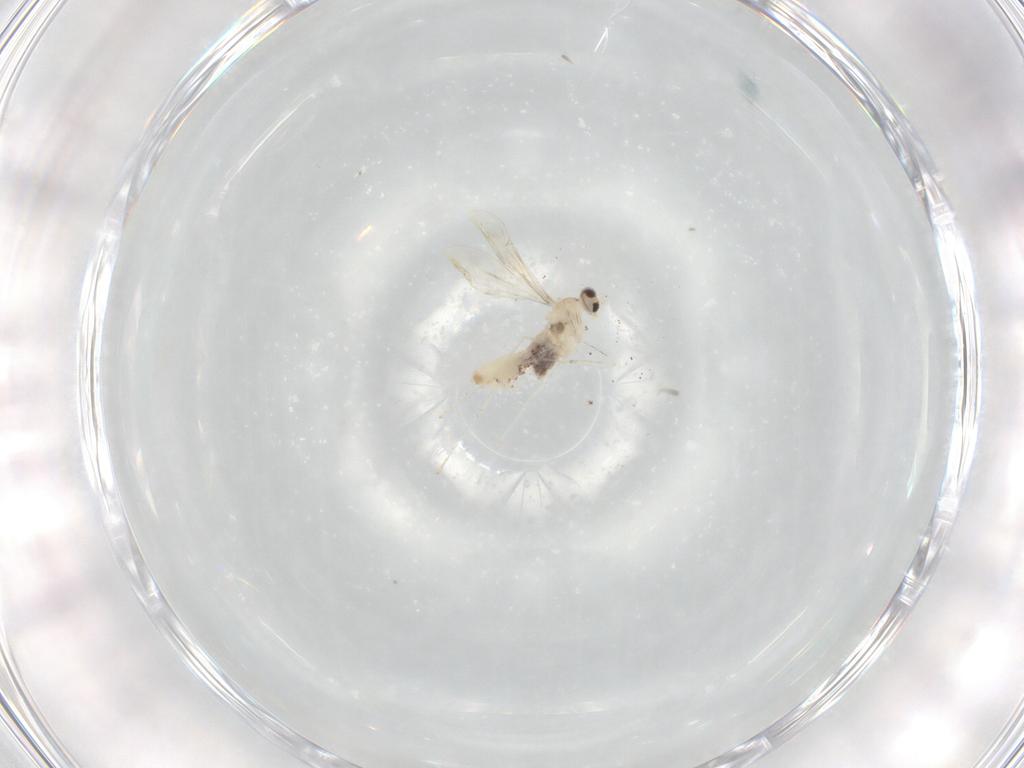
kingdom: Animalia
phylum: Arthropoda
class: Insecta
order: Diptera
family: Cecidomyiidae
